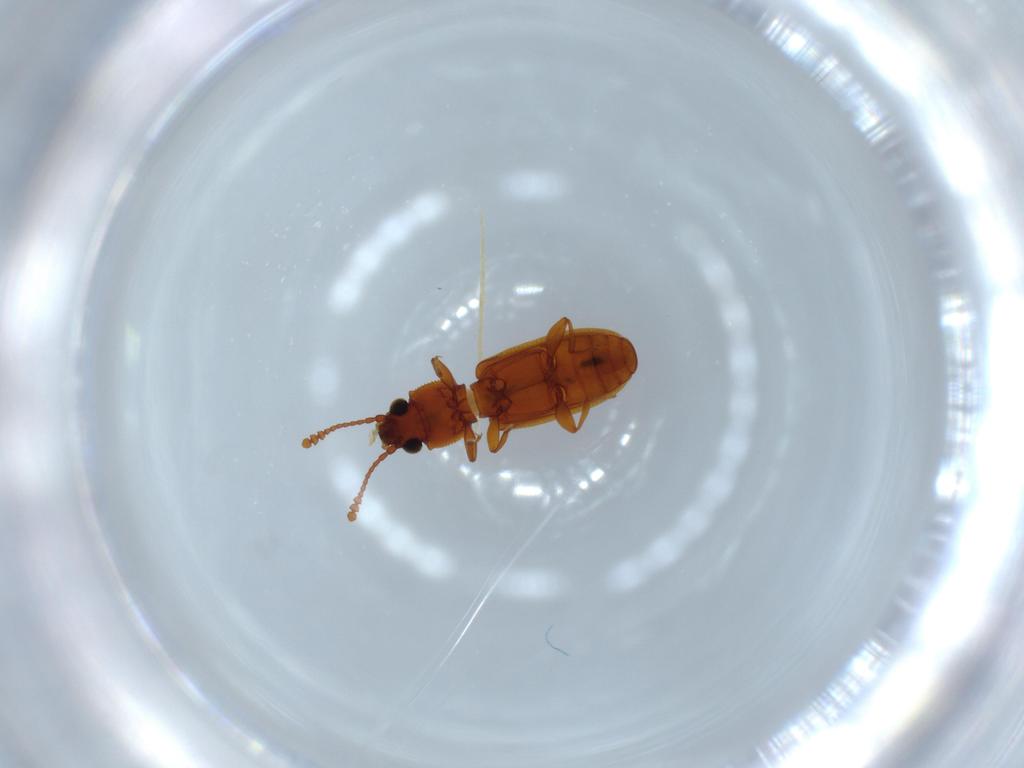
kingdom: Animalia
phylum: Arthropoda
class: Insecta
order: Coleoptera
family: Silvanidae
